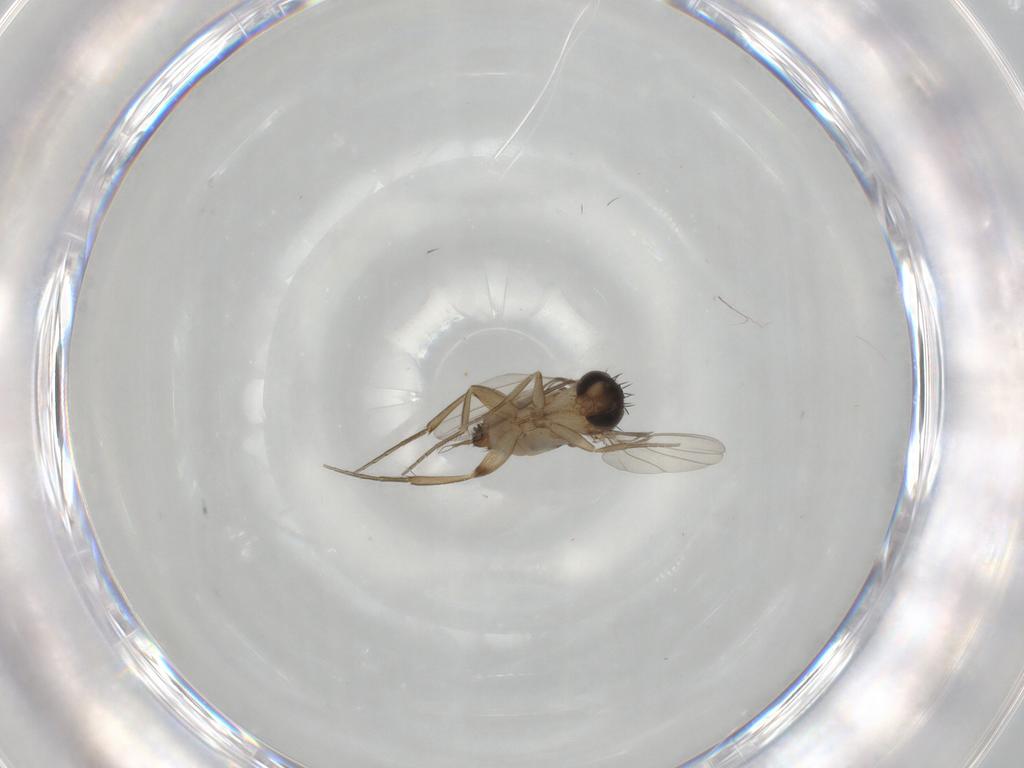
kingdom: Animalia
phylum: Arthropoda
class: Insecta
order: Diptera
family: Phoridae
